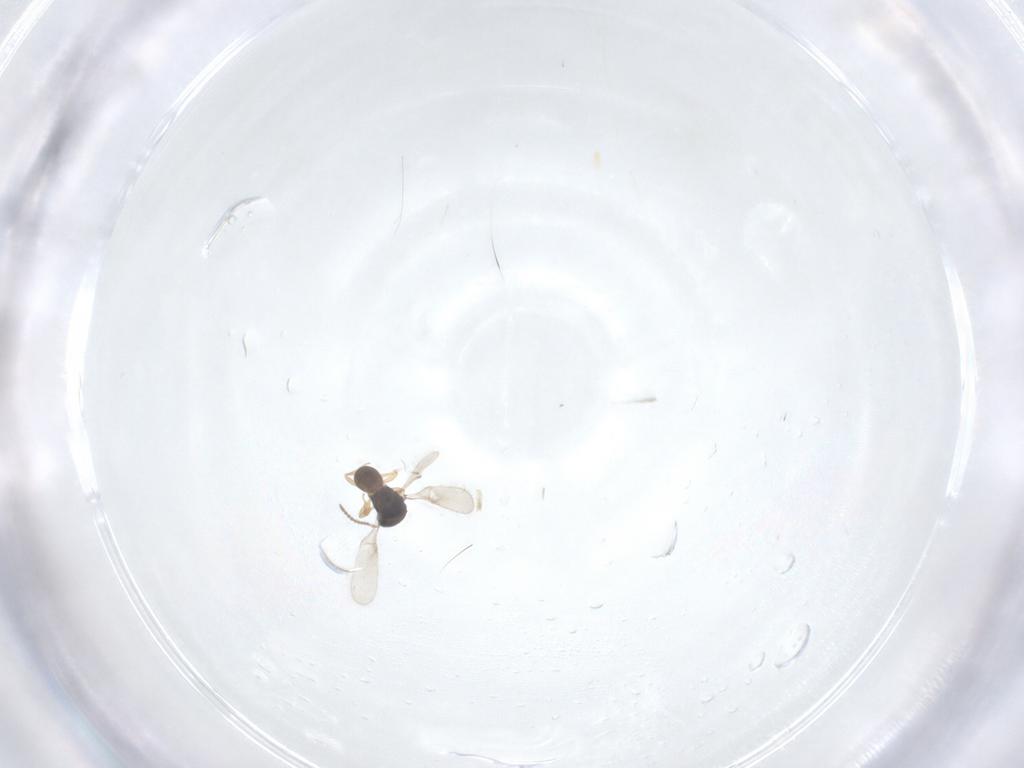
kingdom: Animalia
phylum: Arthropoda
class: Insecta
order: Hymenoptera
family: Scelionidae
